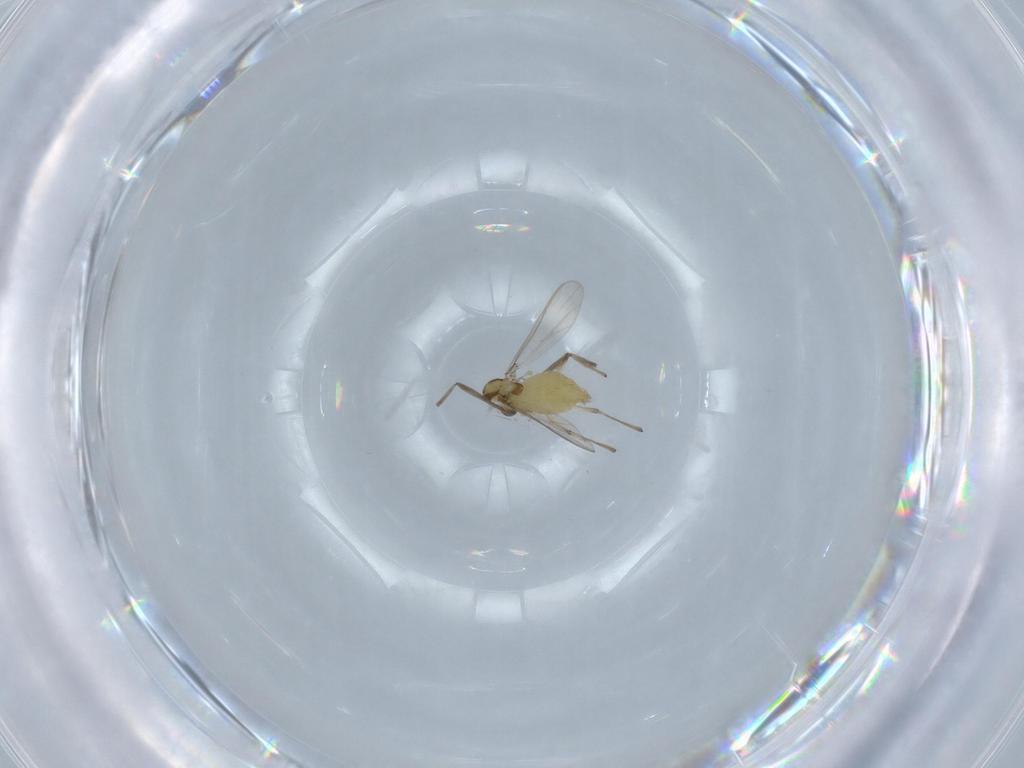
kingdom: Animalia
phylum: Arthropoda
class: Insecta
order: Diptera
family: Chironomidae
